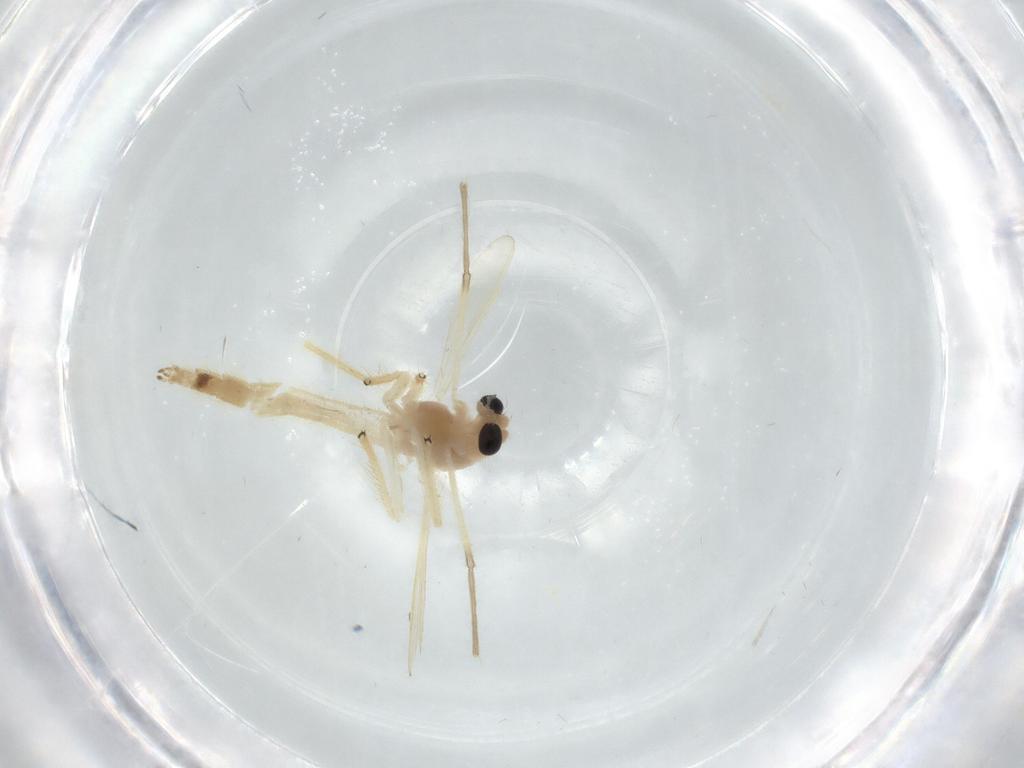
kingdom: Animalia
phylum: Arthropoda
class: Insecta
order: Diptera
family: Chironomidae
